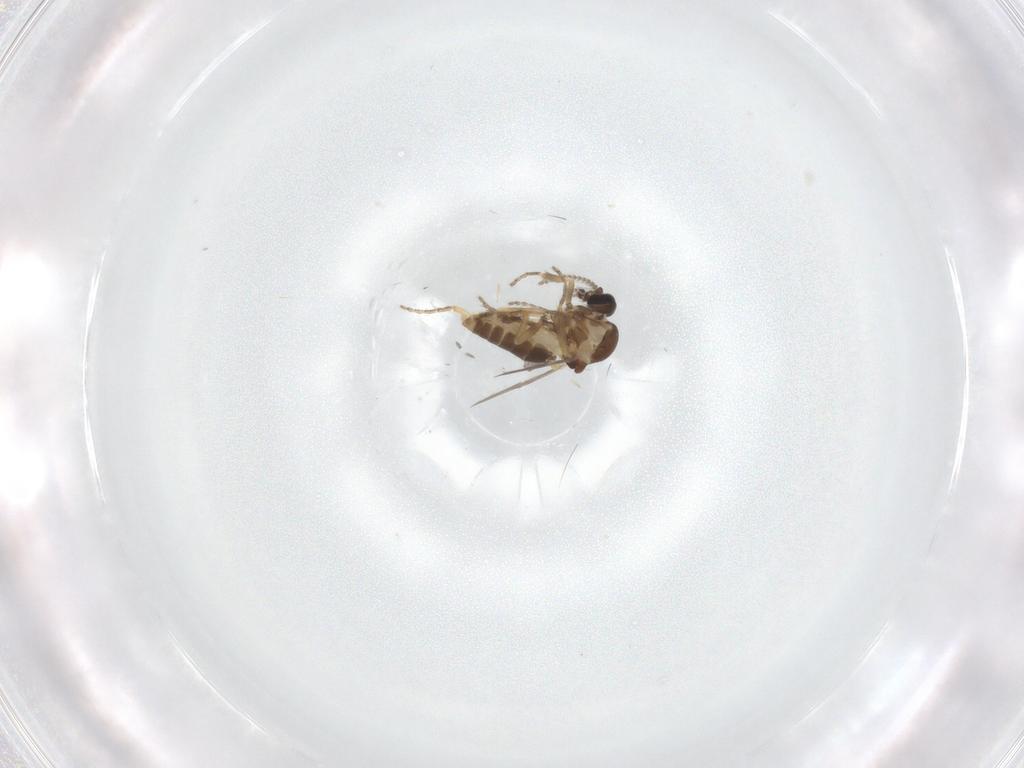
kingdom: Animalia
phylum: Arthropoda
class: Insecta
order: Diptera
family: Ceratopogonidae
